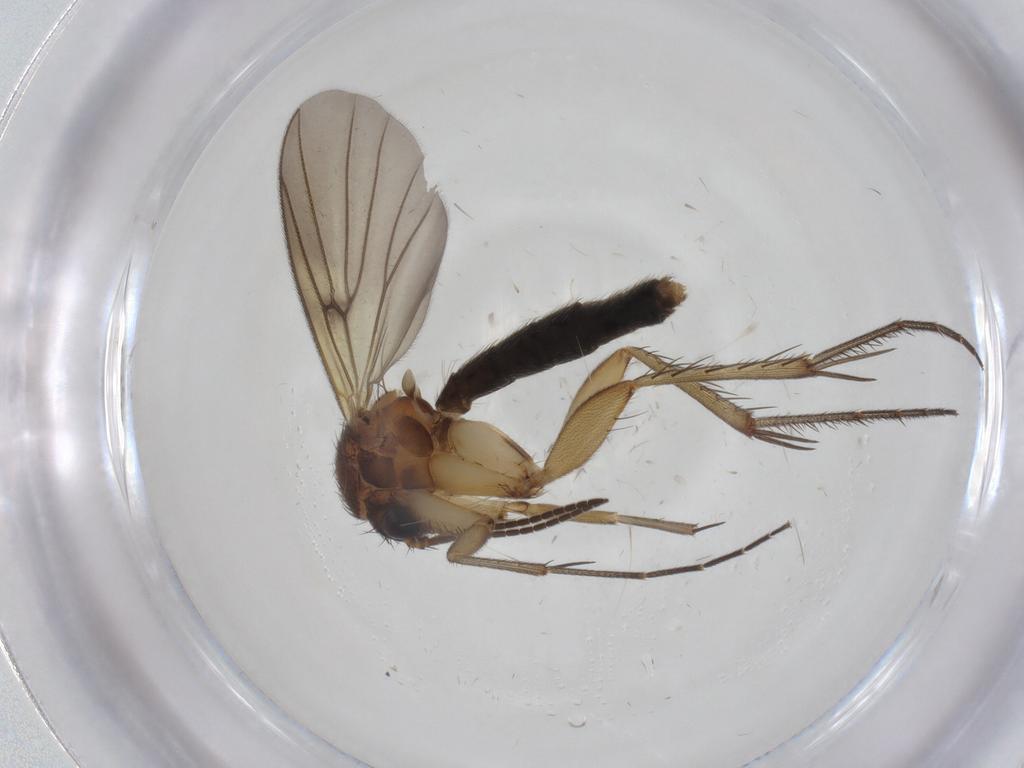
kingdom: Animalia
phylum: Arthropoda
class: Insecta
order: Diptera
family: Mycetophilidae
